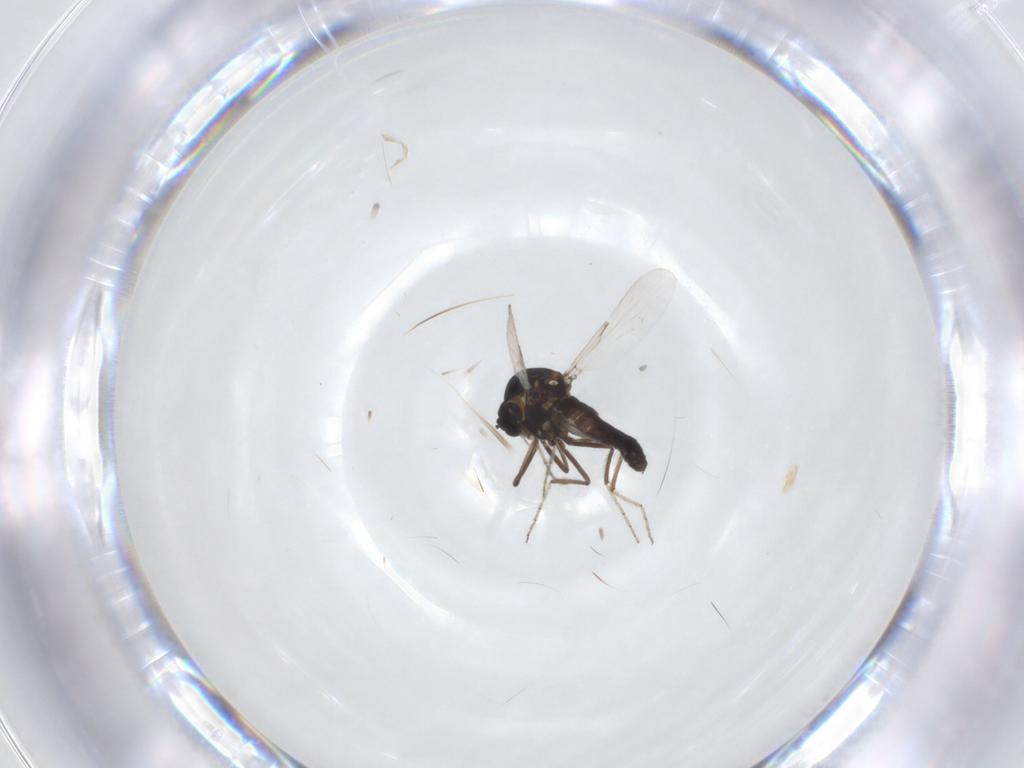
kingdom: Animalia
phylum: Arthropoda
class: Insecta
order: Diptera
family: Ceratopogonidae
